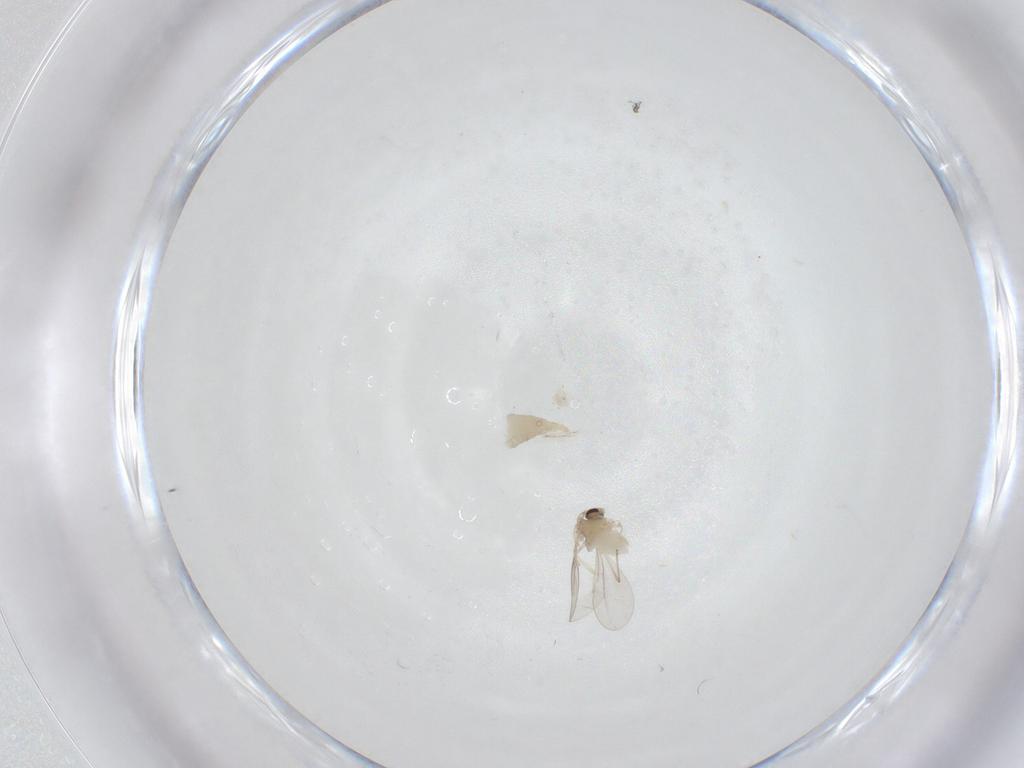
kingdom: Animalia
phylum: Arthropoda
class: Insecta
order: Diptera
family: Cecidomyiidae
